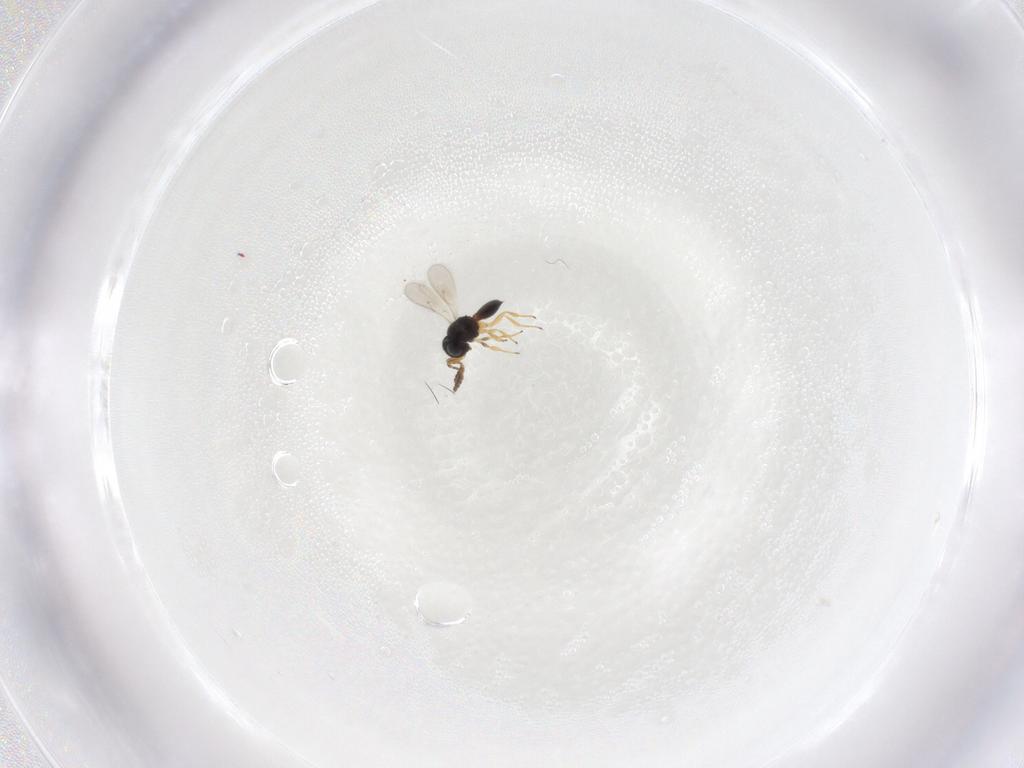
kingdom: Animalia
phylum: Arthropoda
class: Insecta
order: Hymenoptera
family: Scelionidae
